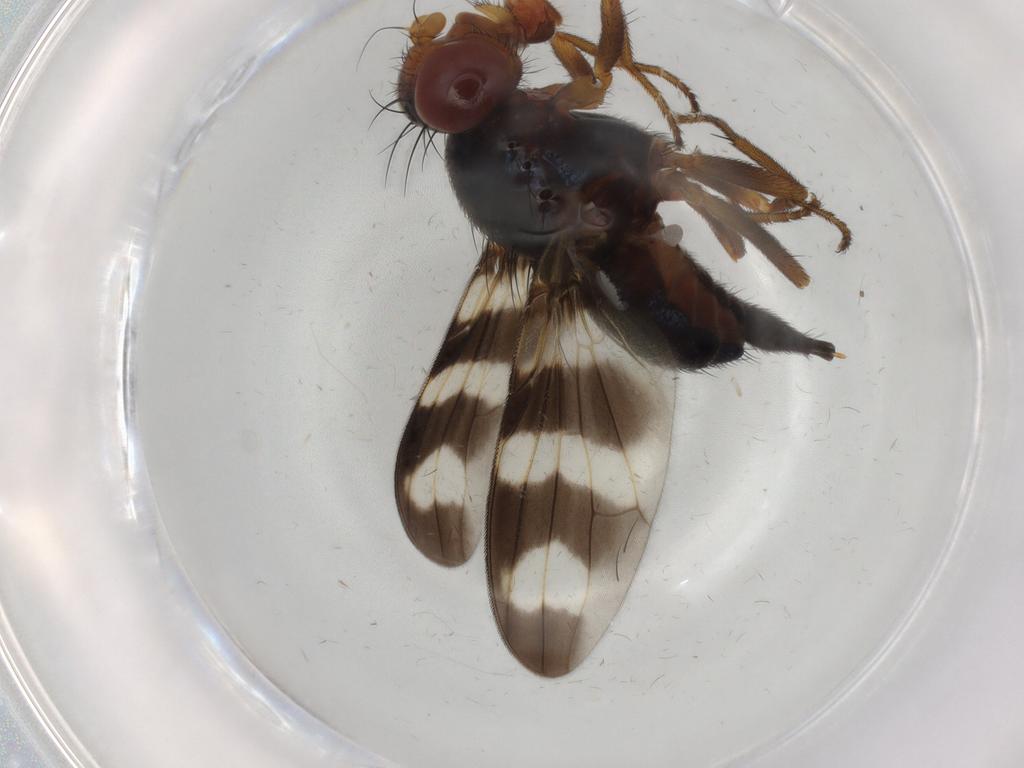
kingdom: Animalia
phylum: Arthropoda
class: Insecta
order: Diptera
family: Ulidiidae
